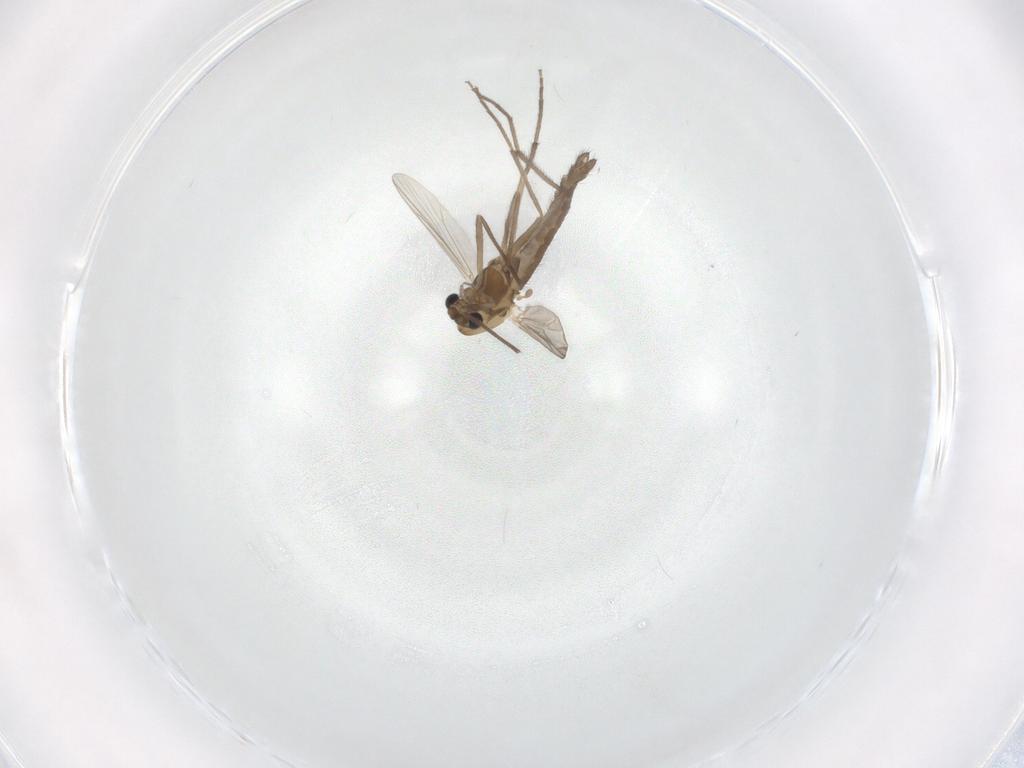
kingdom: Animalia
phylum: Arthropoda
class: Insecta
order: Diptera
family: Chironomidae
